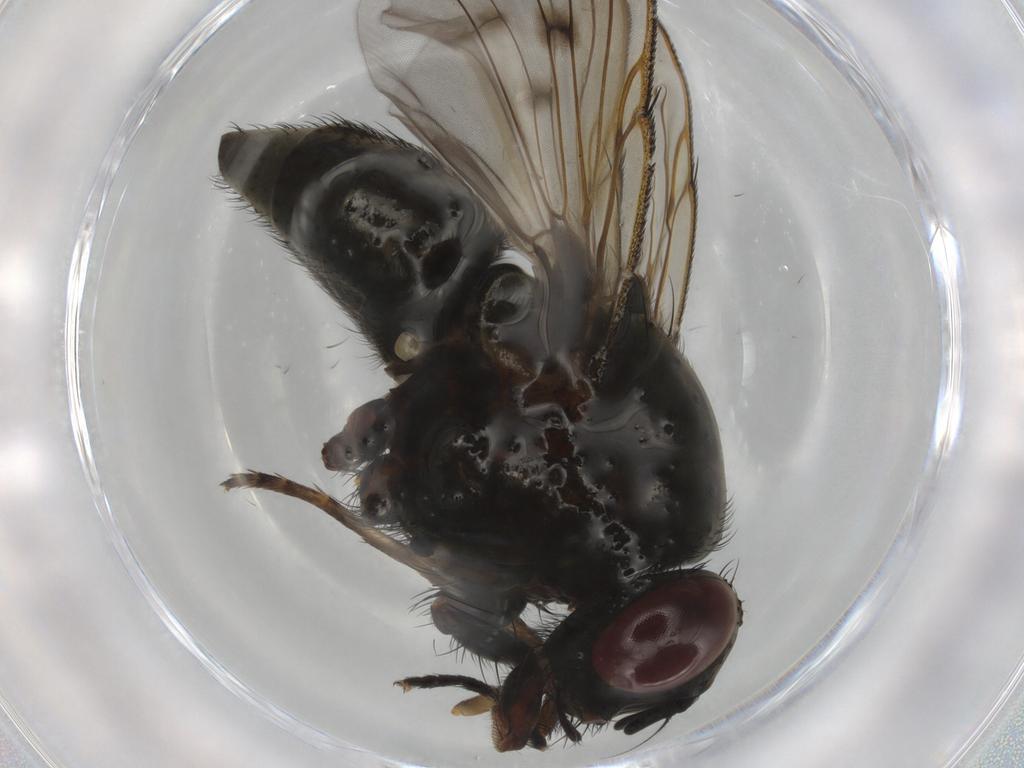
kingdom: Animalia
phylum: Arthropoda
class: Insecta
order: Diptera
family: Muscidae
